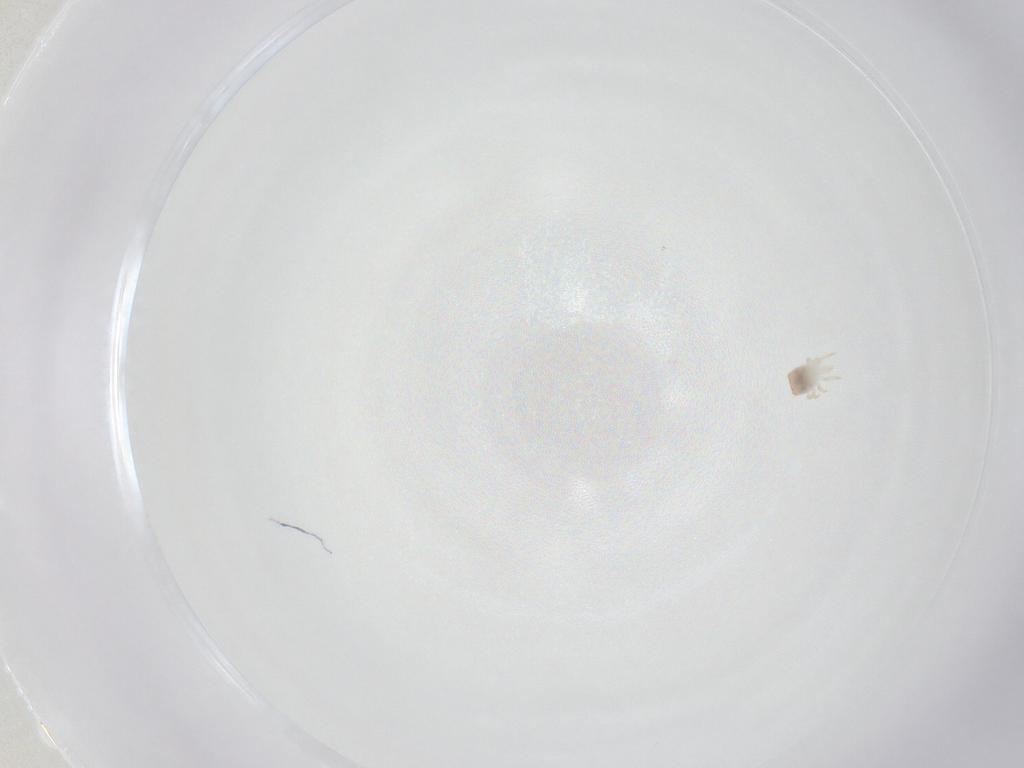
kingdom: Animalia
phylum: Arthropoda
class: Arachnida
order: Mesostigmata
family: Zerconidae
